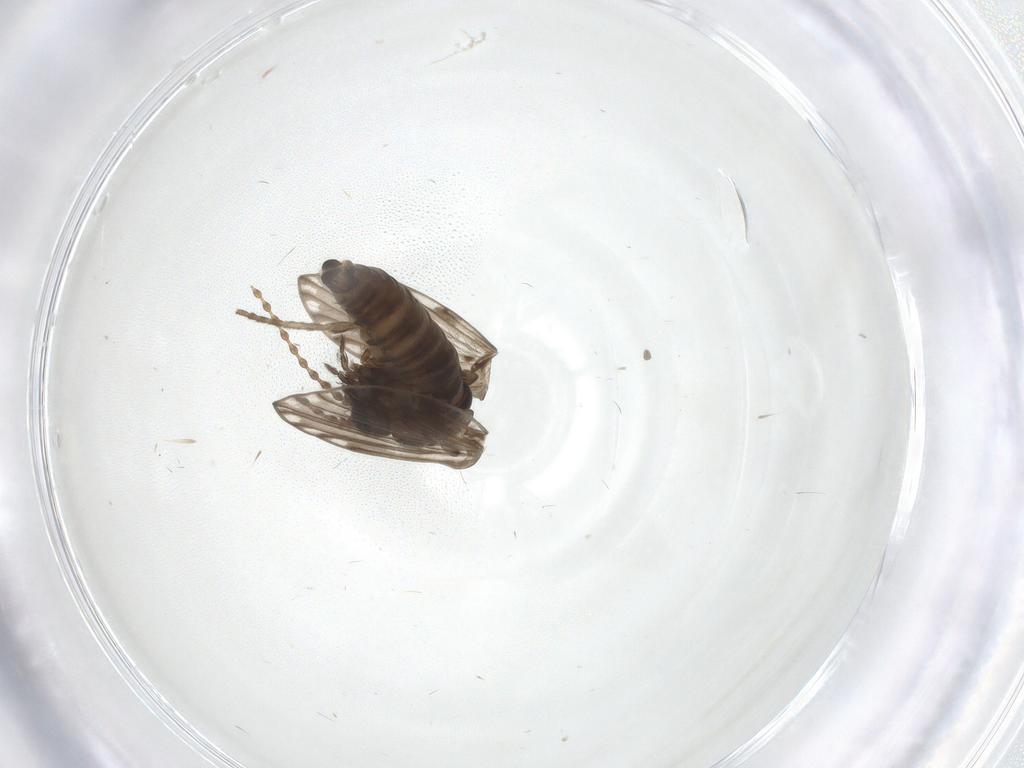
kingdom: Animalia
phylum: Arthropoda
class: Insecta
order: Diptera
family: Psychodidae
